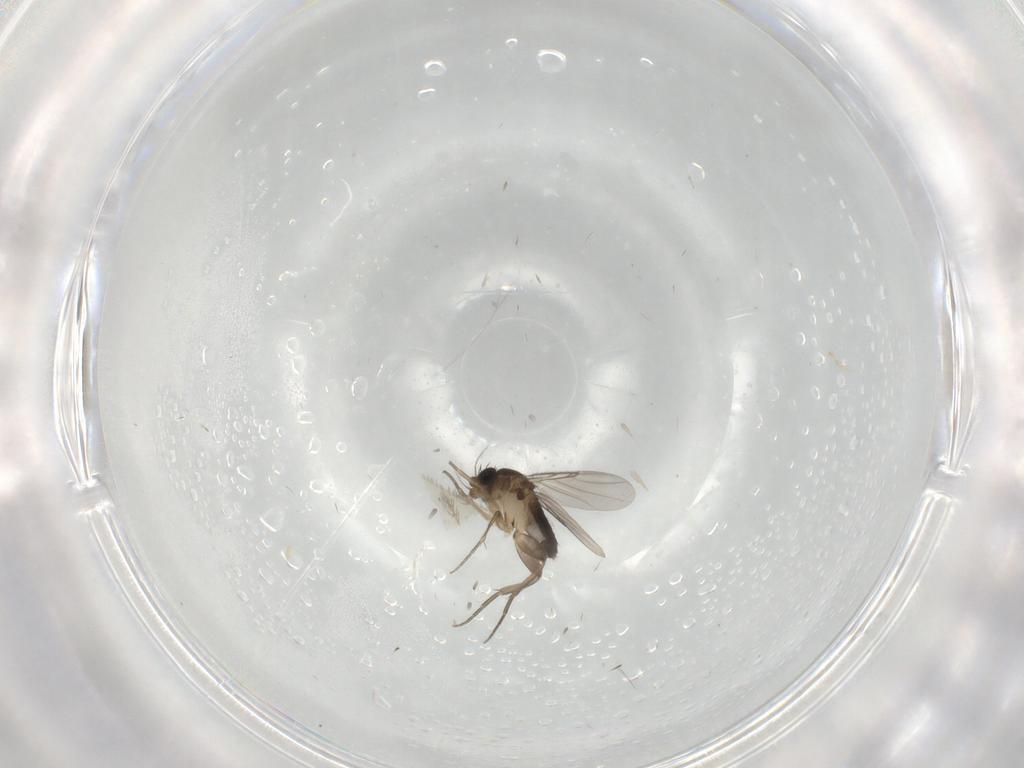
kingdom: Animalia
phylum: Arthropoda
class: Insecta
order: Diptera
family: Culicidae
